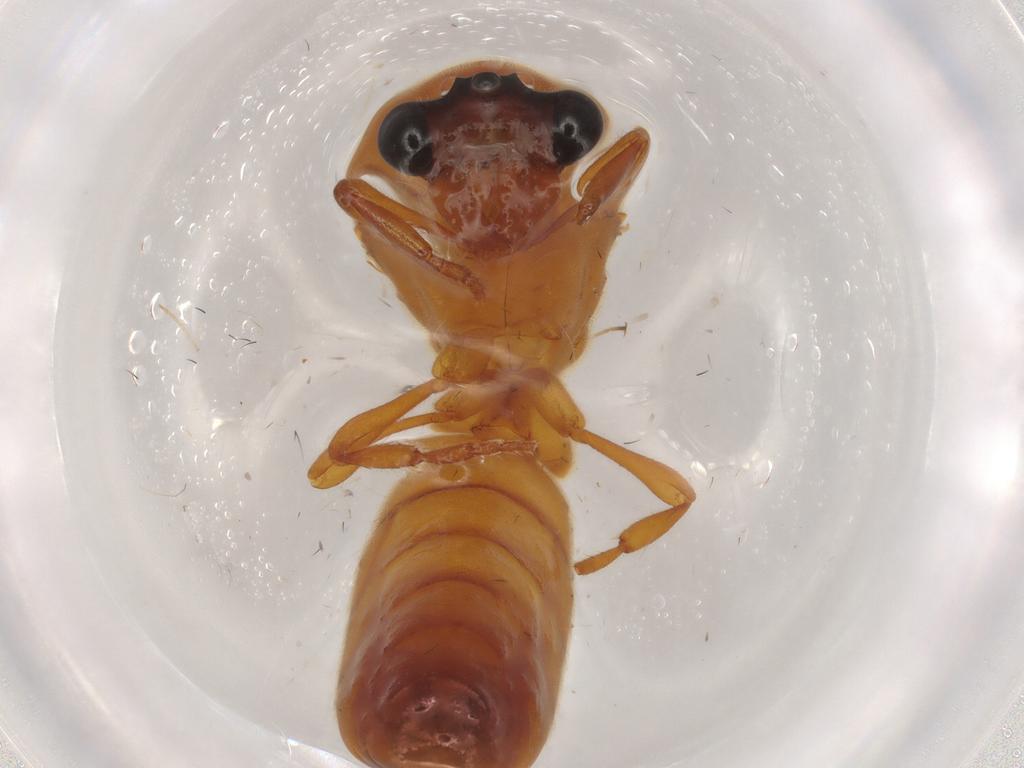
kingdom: Animalia
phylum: Arthropoda
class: Insecta
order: Hymenoptera
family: Formicidae
